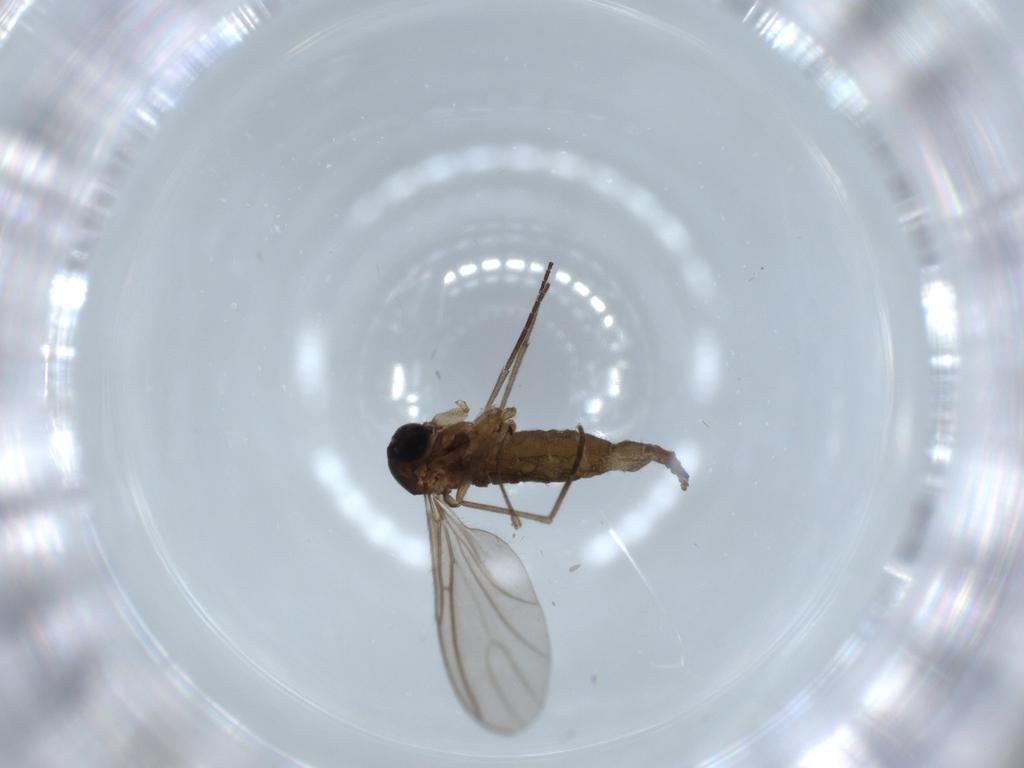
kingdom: Animalia
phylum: Arthropoda
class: Insecta
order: Diptera
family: Sciaridae
